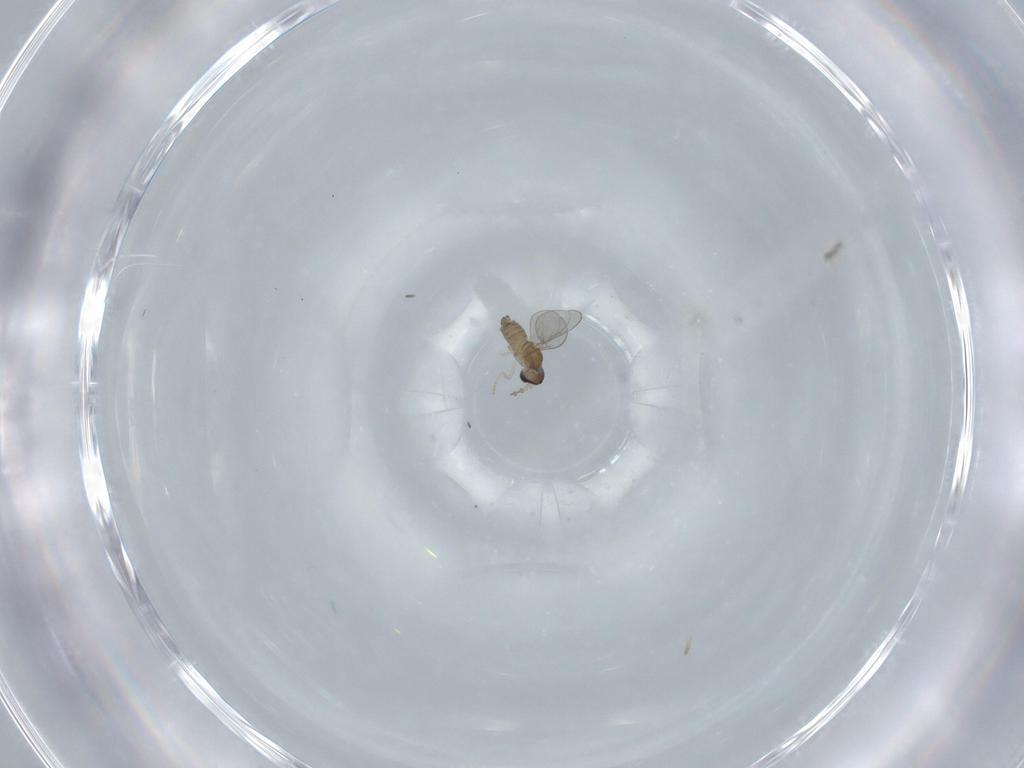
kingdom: Animalia
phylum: Arthropoda
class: Insecta
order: Diptera
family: Cecidomyiidae
